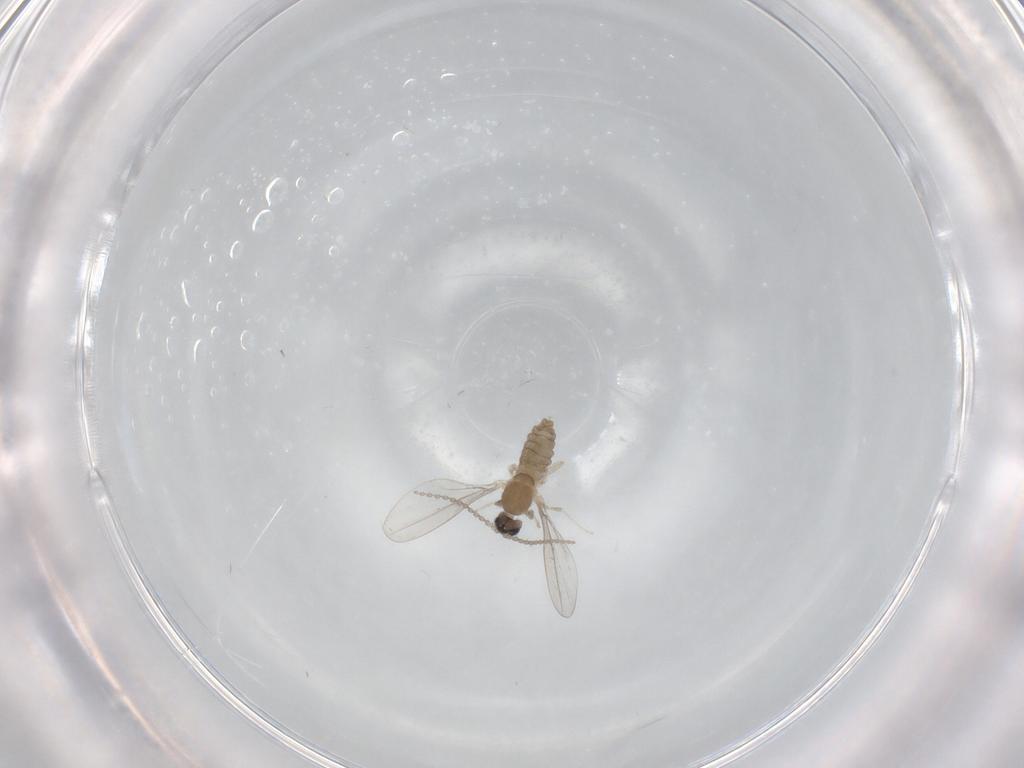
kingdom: Animalia
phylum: Arthropoda
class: Insecta
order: Diptera
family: Cecidomyiidae
